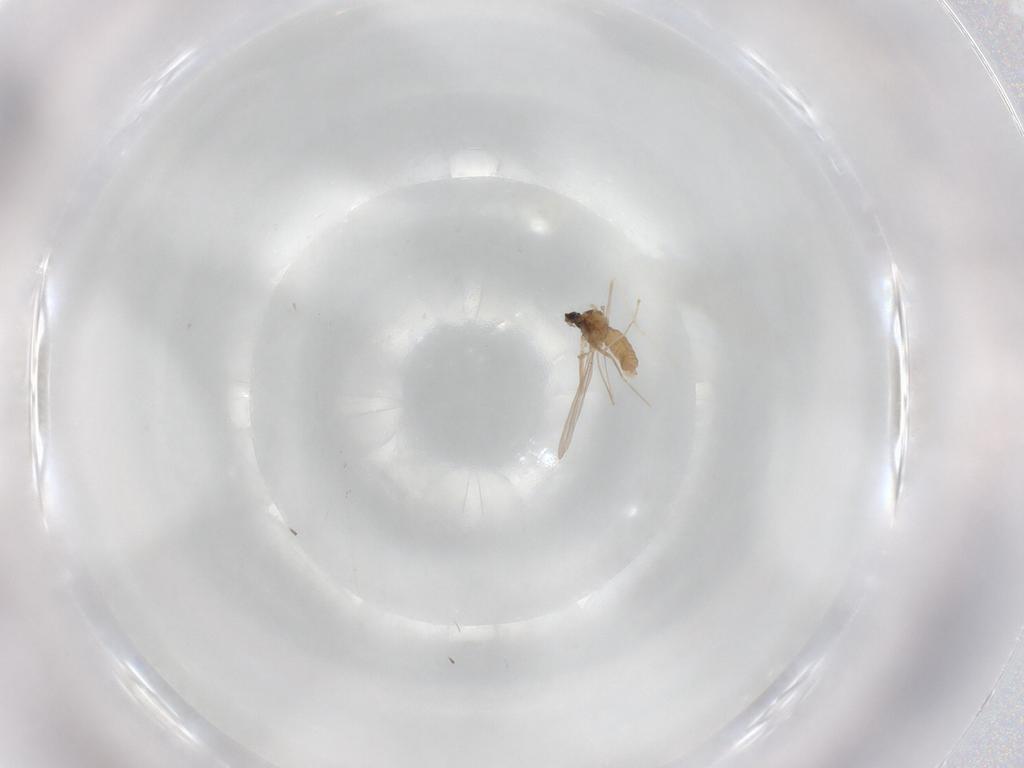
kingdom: Animalia
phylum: Arthropoda
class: Insecta
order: Diptera
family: Cecidomyiidae
